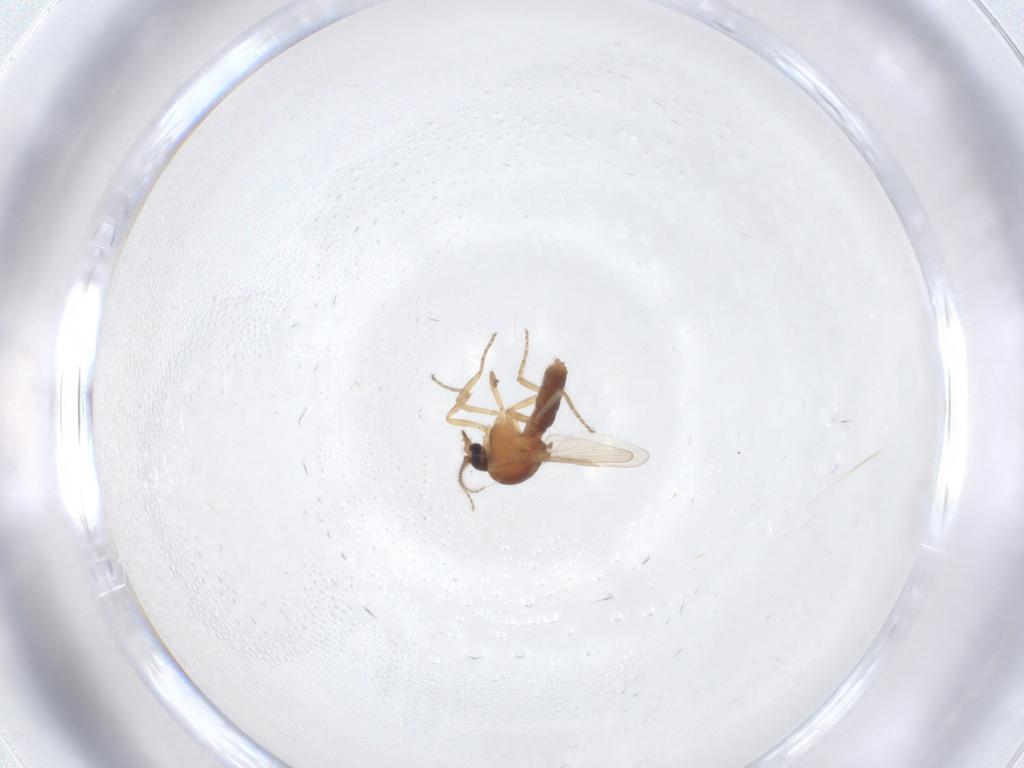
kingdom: Animalia
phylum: Arthropoda
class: Insecta
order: Diptera
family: Ceratopogonidae
